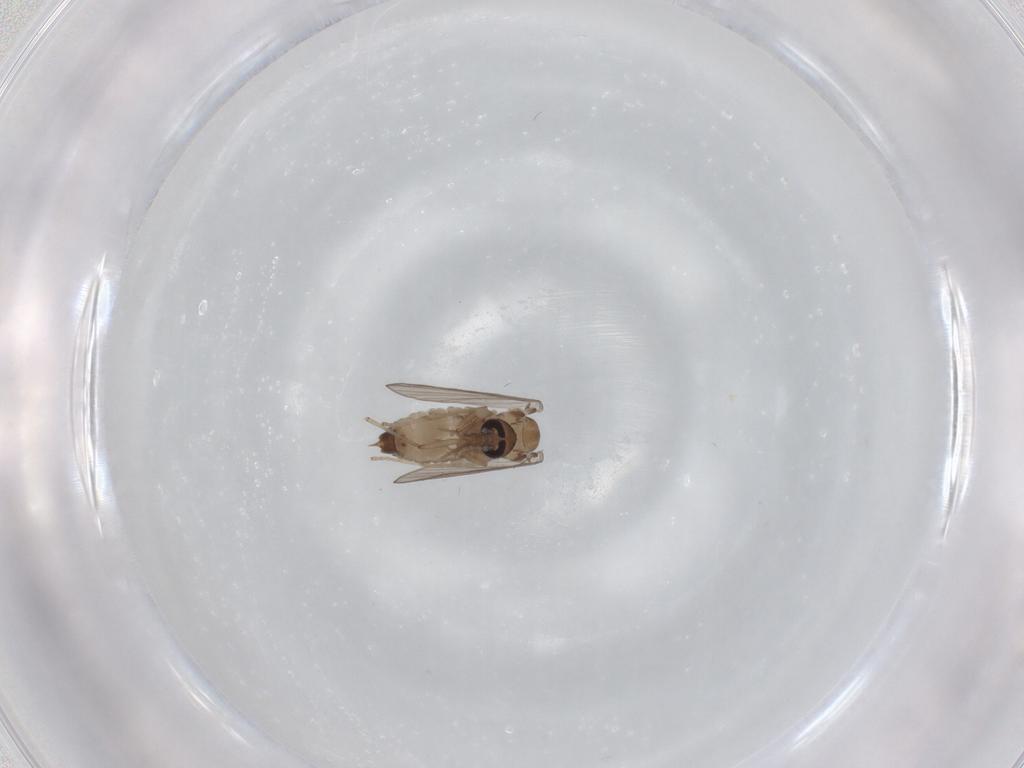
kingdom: Animalia
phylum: Arthropoda
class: Insecta
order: Diptera
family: Psychodidae
